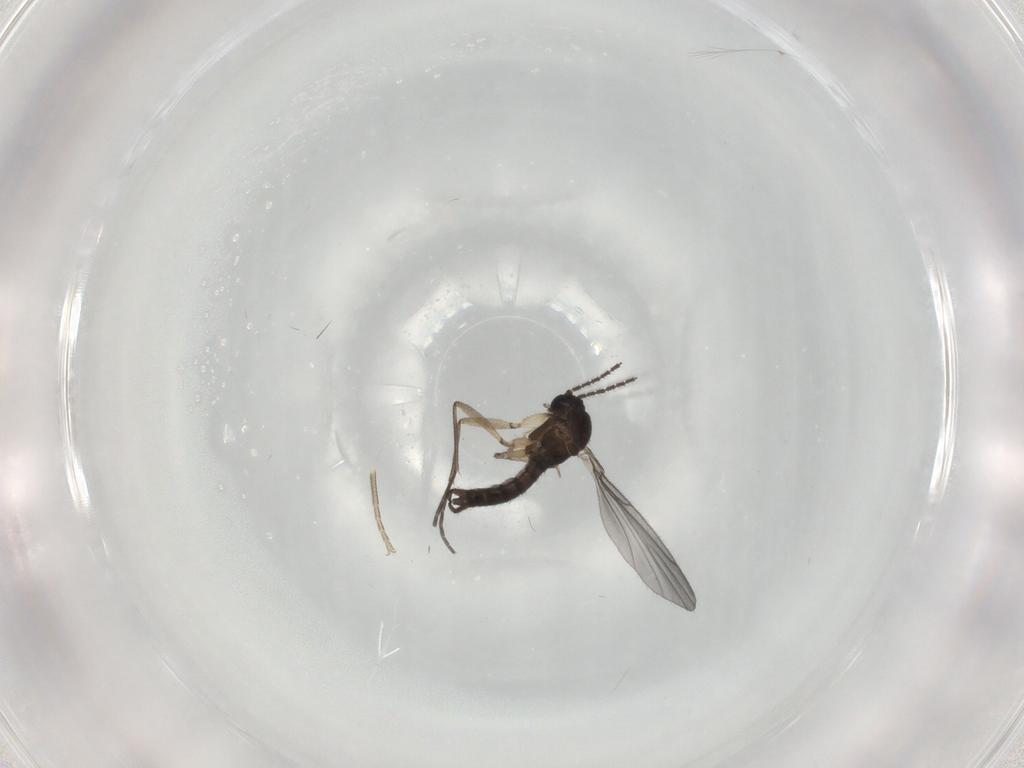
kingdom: Animalia
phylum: Arthropoda
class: Insecta
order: Diptera
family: Sciaridae
